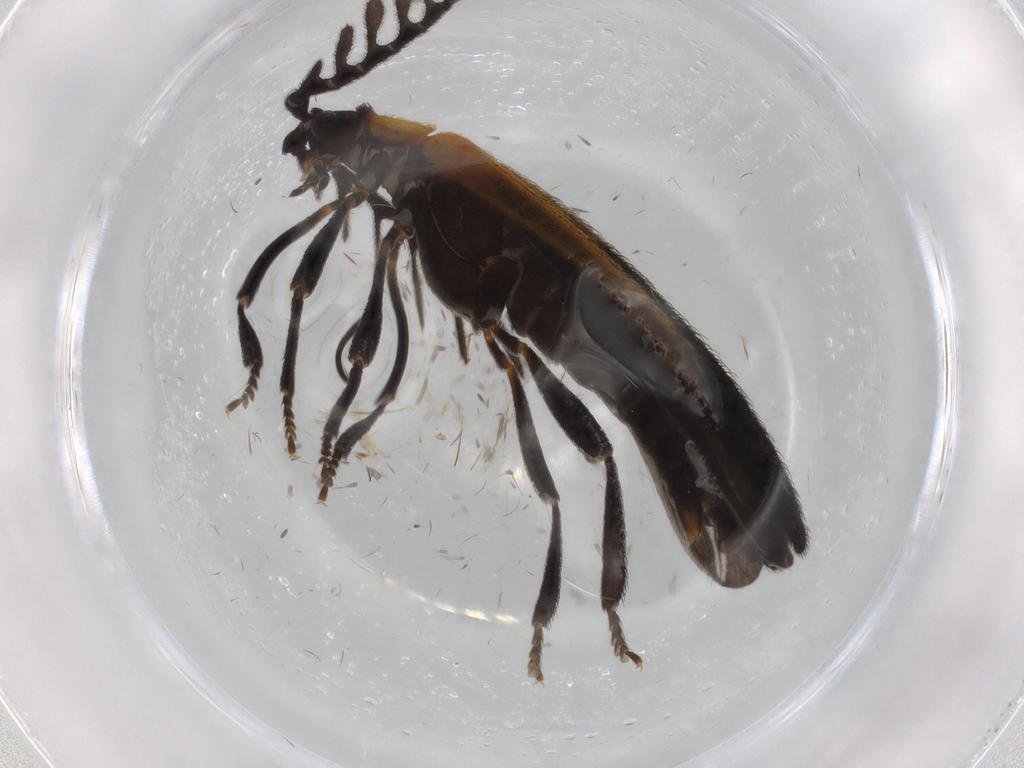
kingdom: Animalia
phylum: Arthropoda
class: Insecta
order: Coleoptera
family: Lycidae
